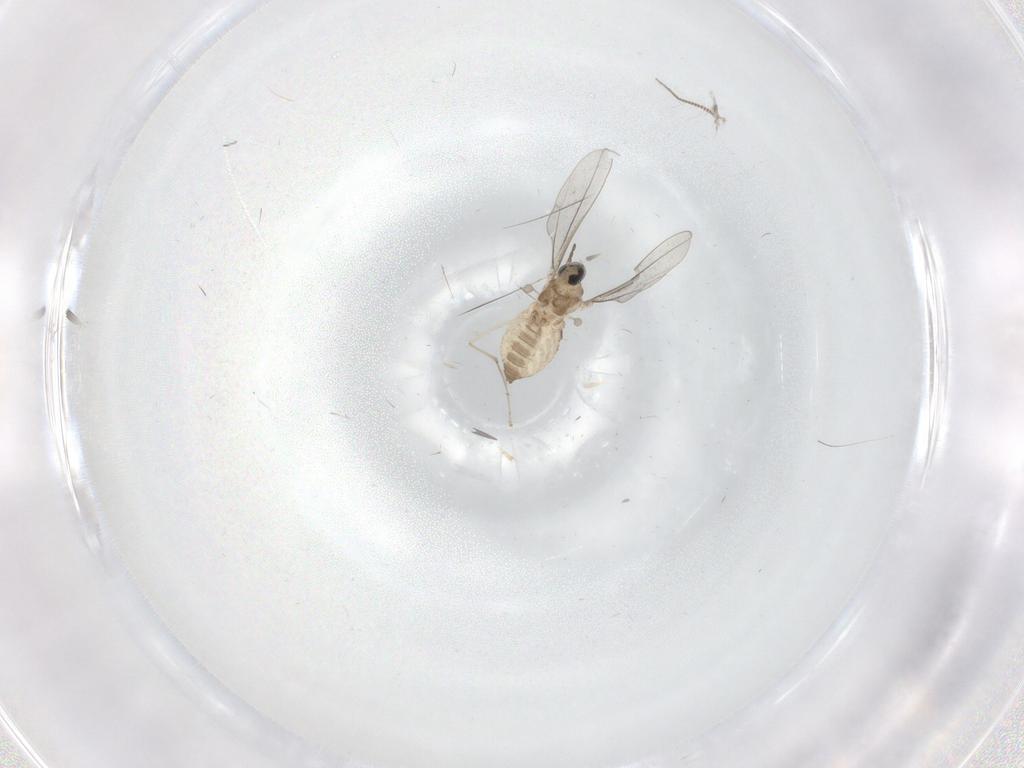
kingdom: Animalia
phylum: Arthropoda
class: Insecta
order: Diptera
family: Cecidomyiidae
